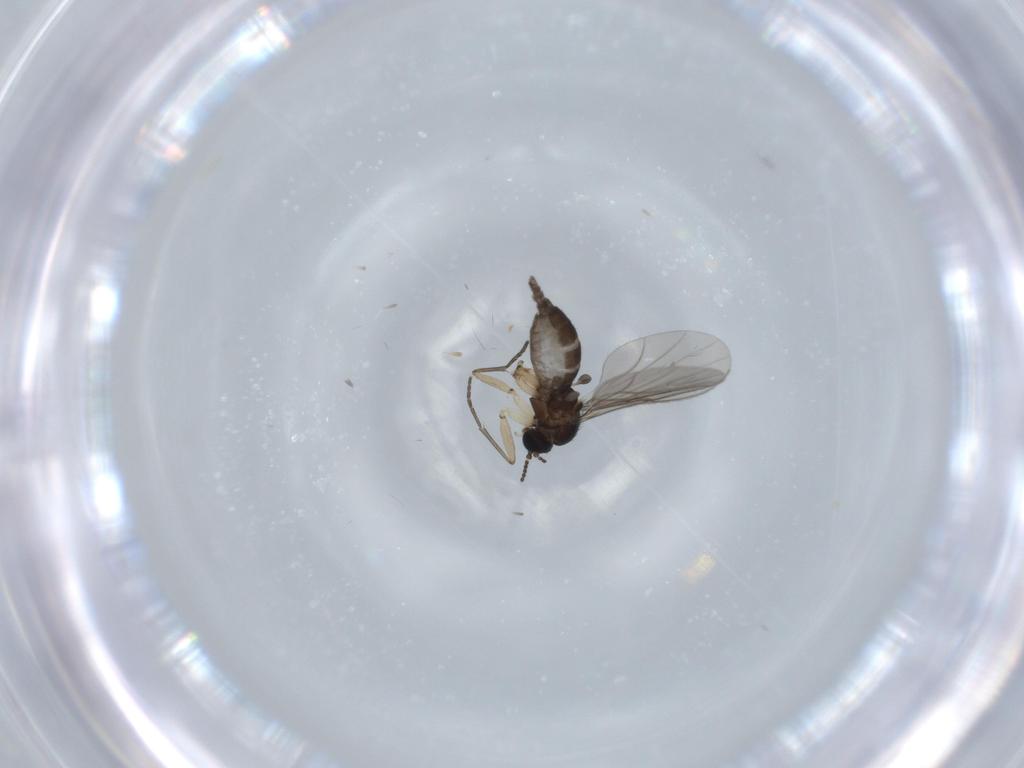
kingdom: Animalia
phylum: Arthropoda
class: Insecta
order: Diptera
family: Sciaridae
